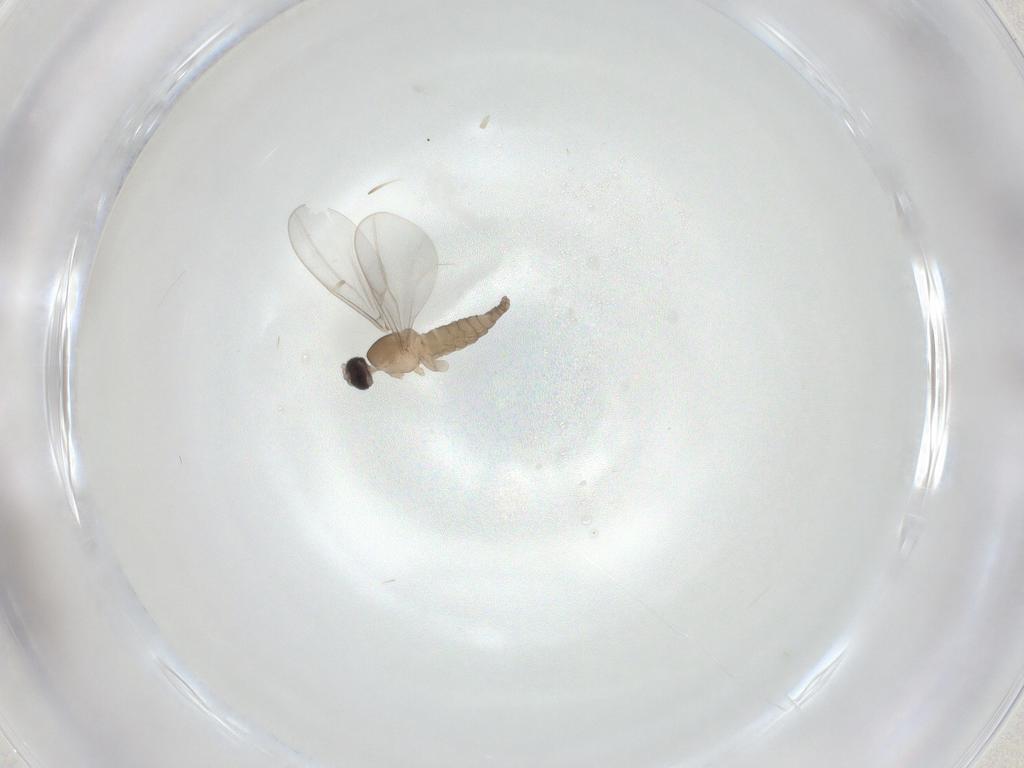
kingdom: Animalia
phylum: Arthropoda
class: Insecta
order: Diptera
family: Cecidomyiidae
